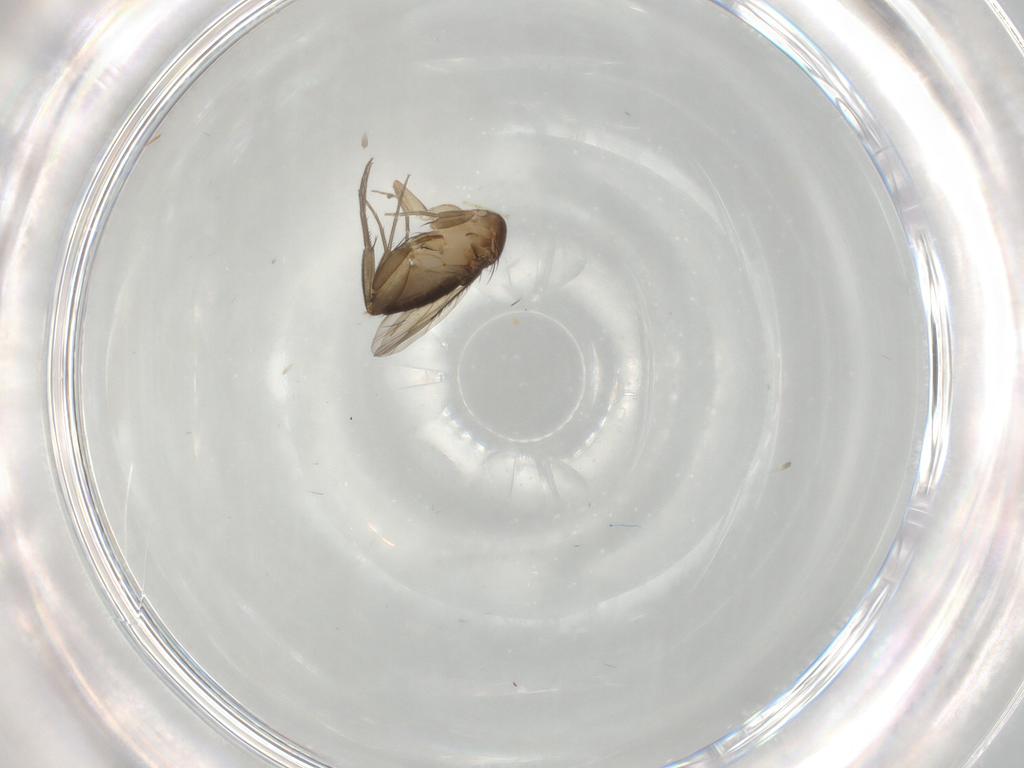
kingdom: Animalia
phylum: Arthropoda
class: Insecta
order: Diptera
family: Phoridae
